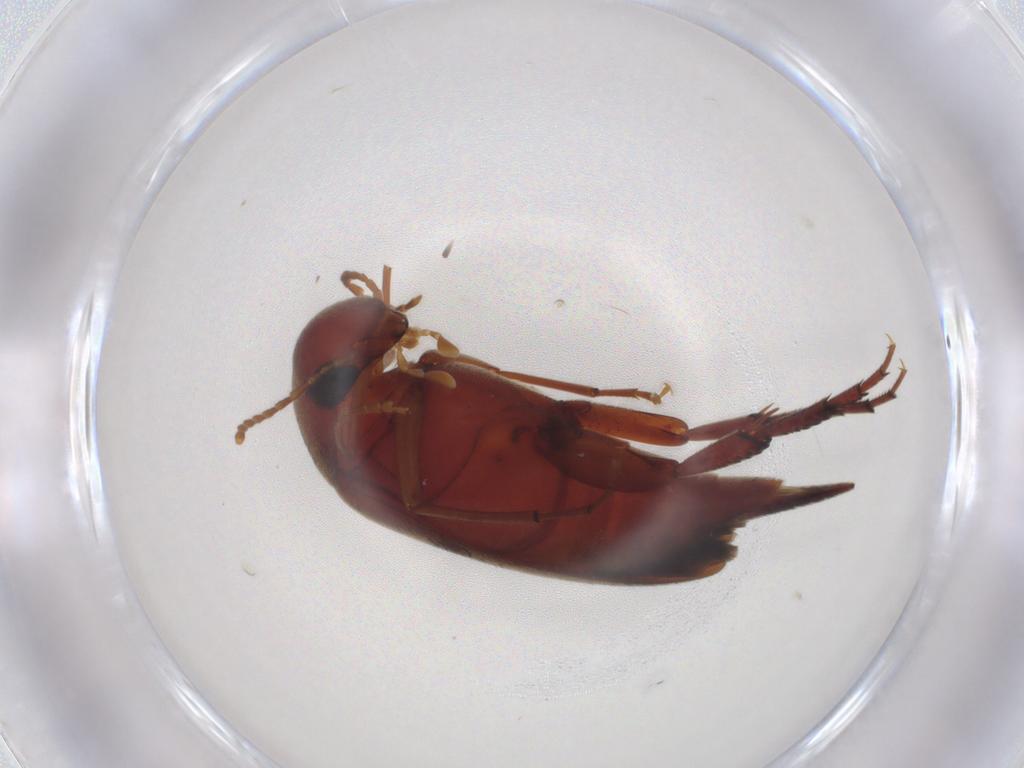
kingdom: Animalia
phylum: Arthropoda
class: Insecta
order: Coleoptera
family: Mordellidae
